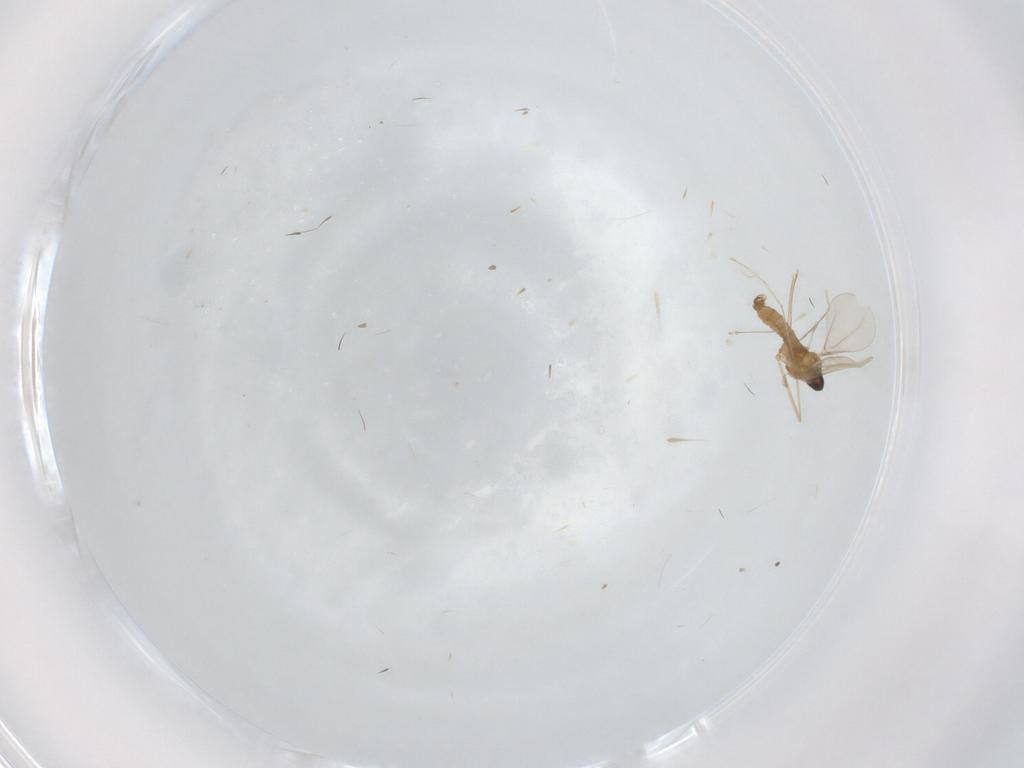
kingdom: Animalia
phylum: Arthropoda
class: Insecta
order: Diptera
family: Cecidomyiidae
